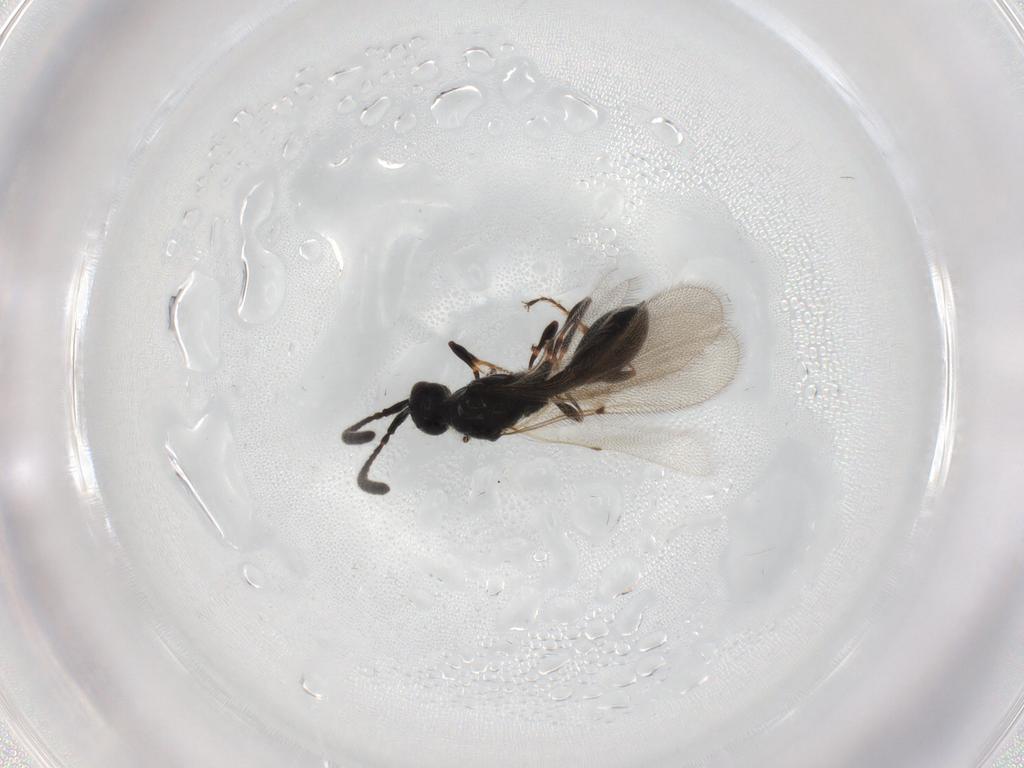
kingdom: Animalia
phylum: Arthropoda
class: Insecta
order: Hymenoptera
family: Diapriidae
